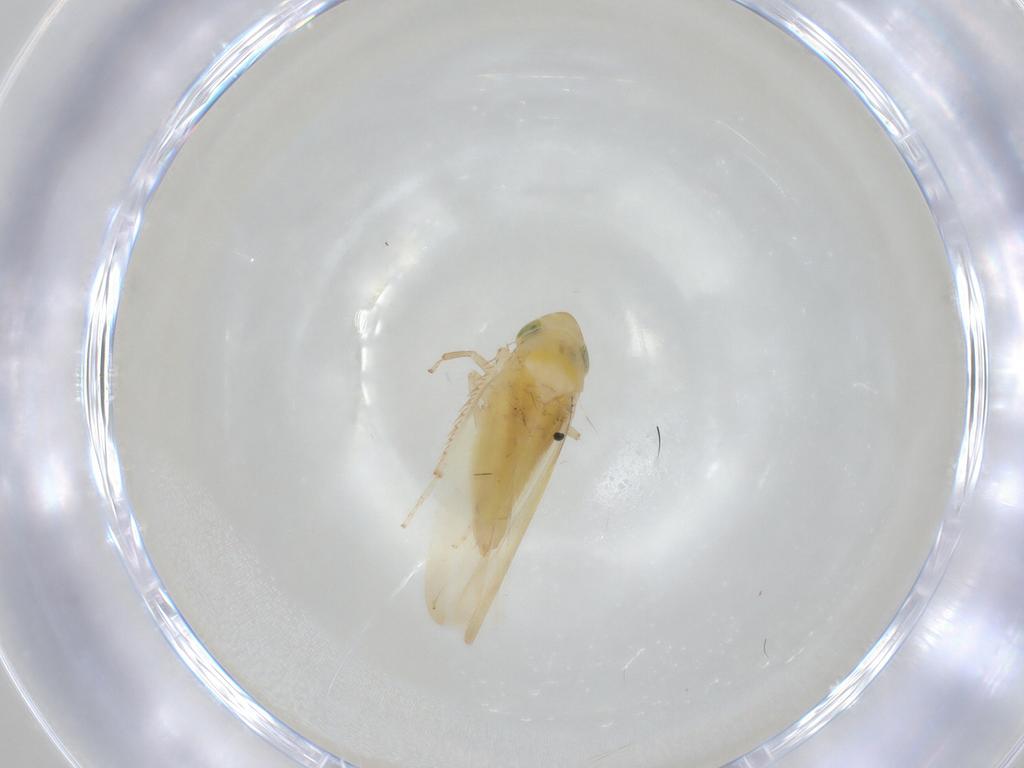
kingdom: Animalia
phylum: Arthropoda
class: Insecta
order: Hemiptera
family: Cicadellidae
